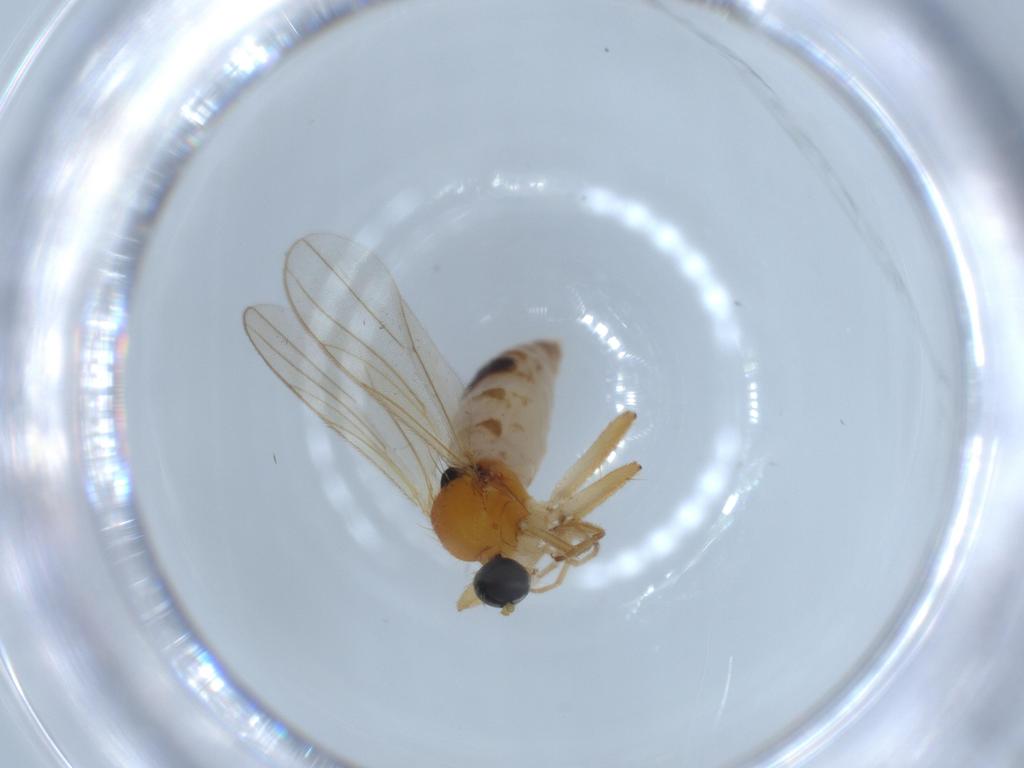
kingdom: Animalia
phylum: Arthropoda
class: Insecta
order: Diptera
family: Hybotidae
